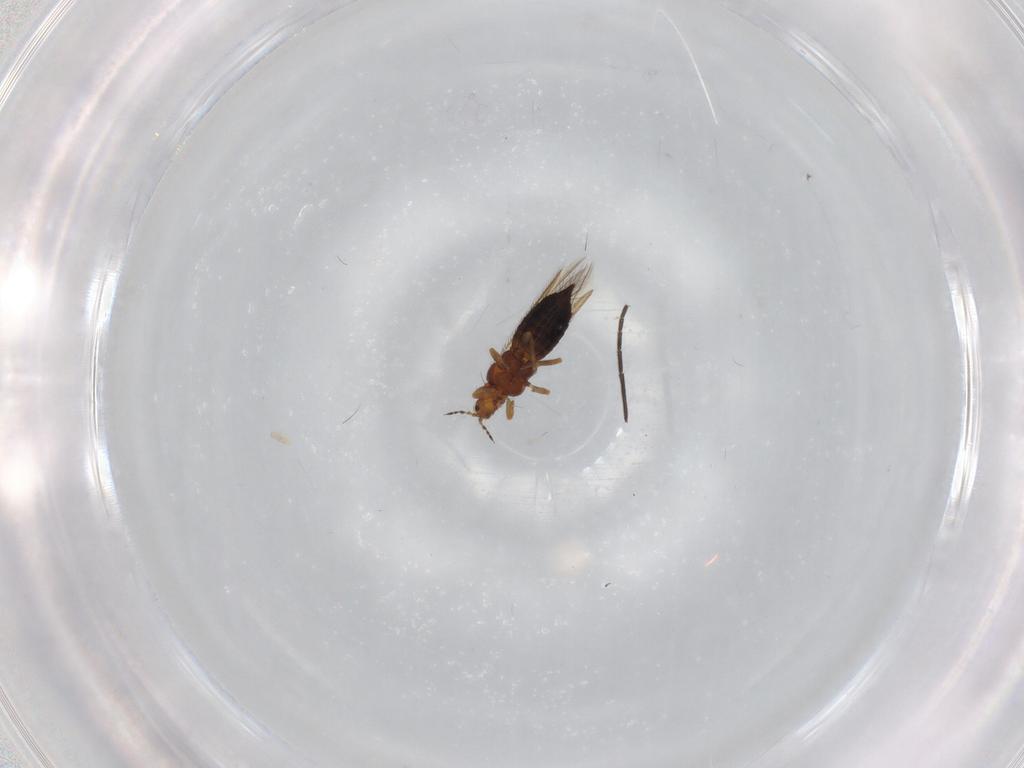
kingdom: Animalia
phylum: Arthropoda
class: Insecta
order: Thysanoptera
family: Thripidae
